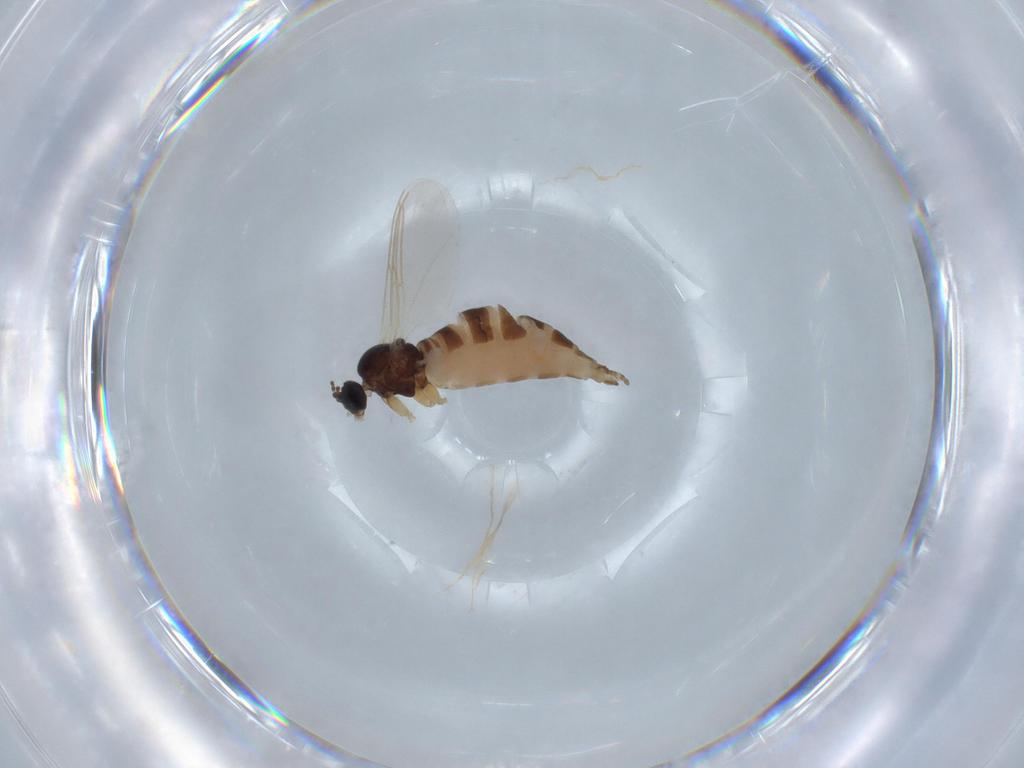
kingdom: Animalia
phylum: Arthropoda
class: Insecta
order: Diptera
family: Sciaridae
